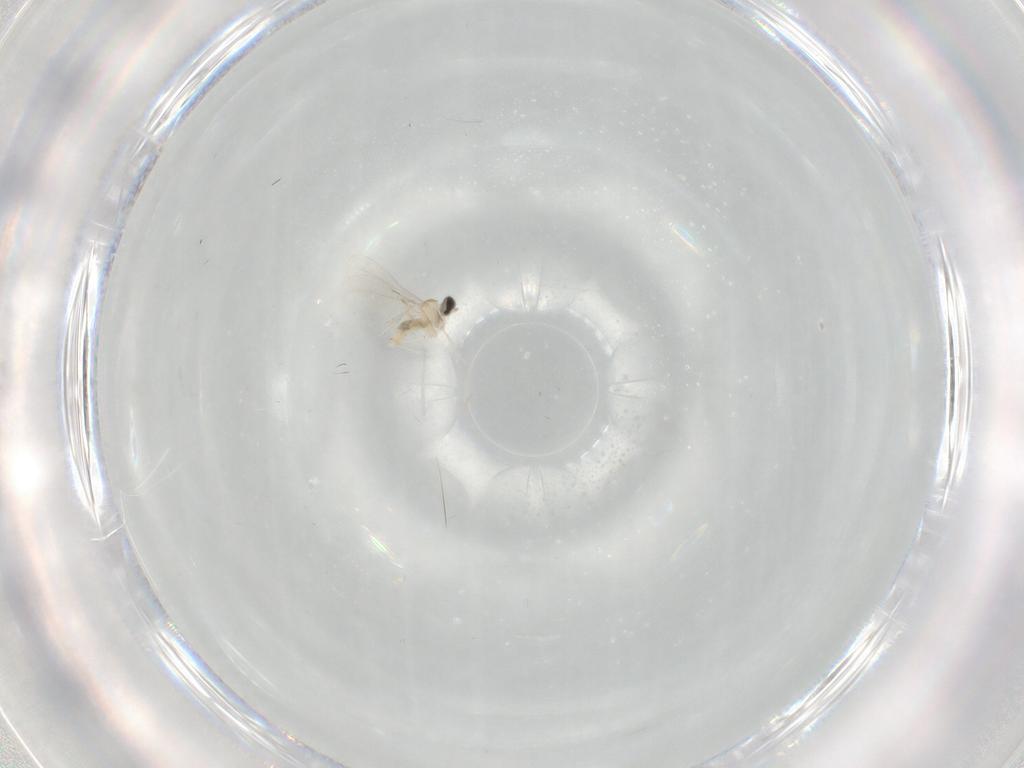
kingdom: Animalia
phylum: Arthropoda
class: Insecta
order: Diptera
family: Cecidomyiidae
